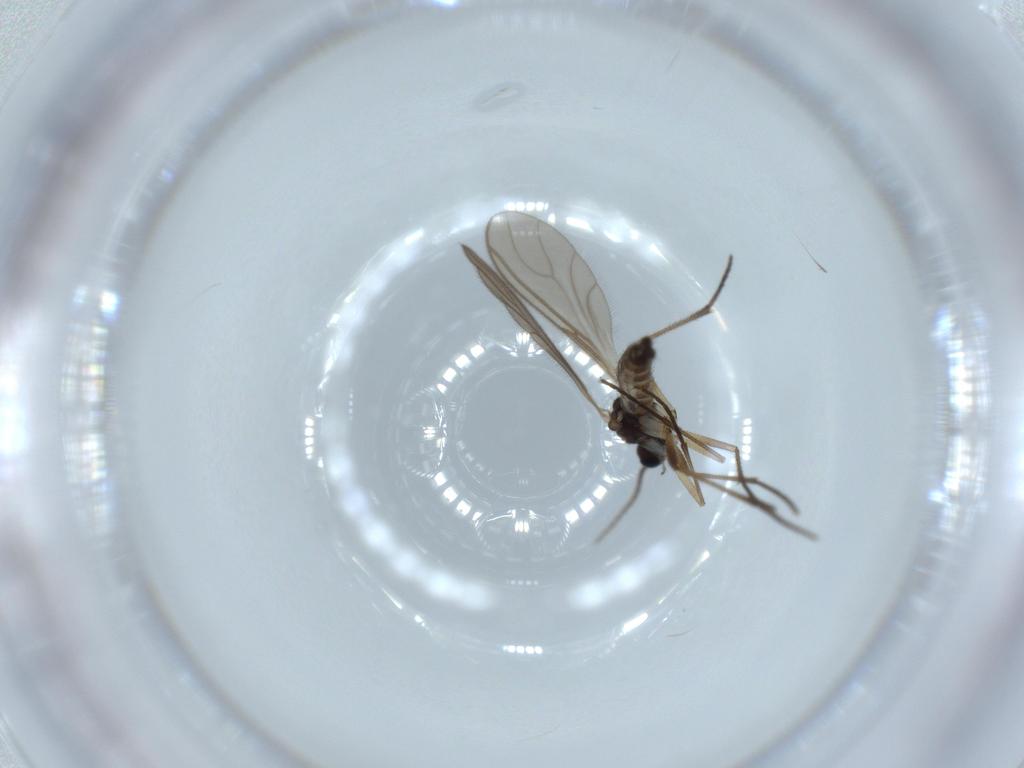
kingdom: Animalia
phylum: Arthropoda
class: Insecta
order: Diptera
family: Sciaridae
